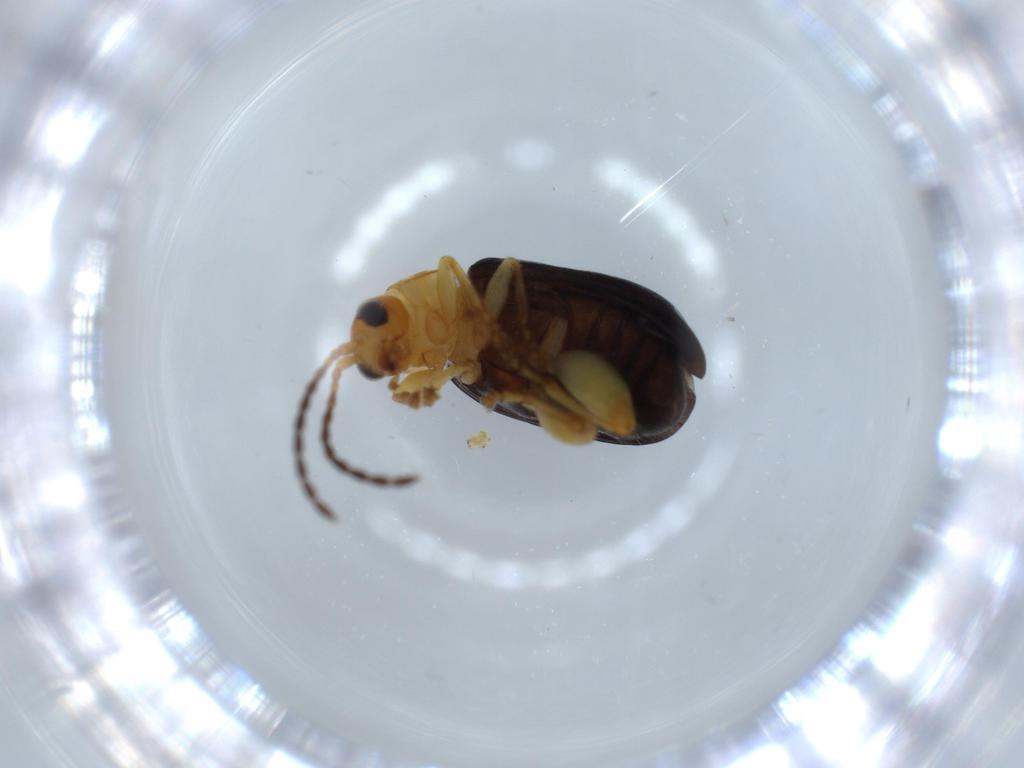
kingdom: Animalia
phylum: Arthropoda
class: Insecta
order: Coleoptera
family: Chrysomelidae
